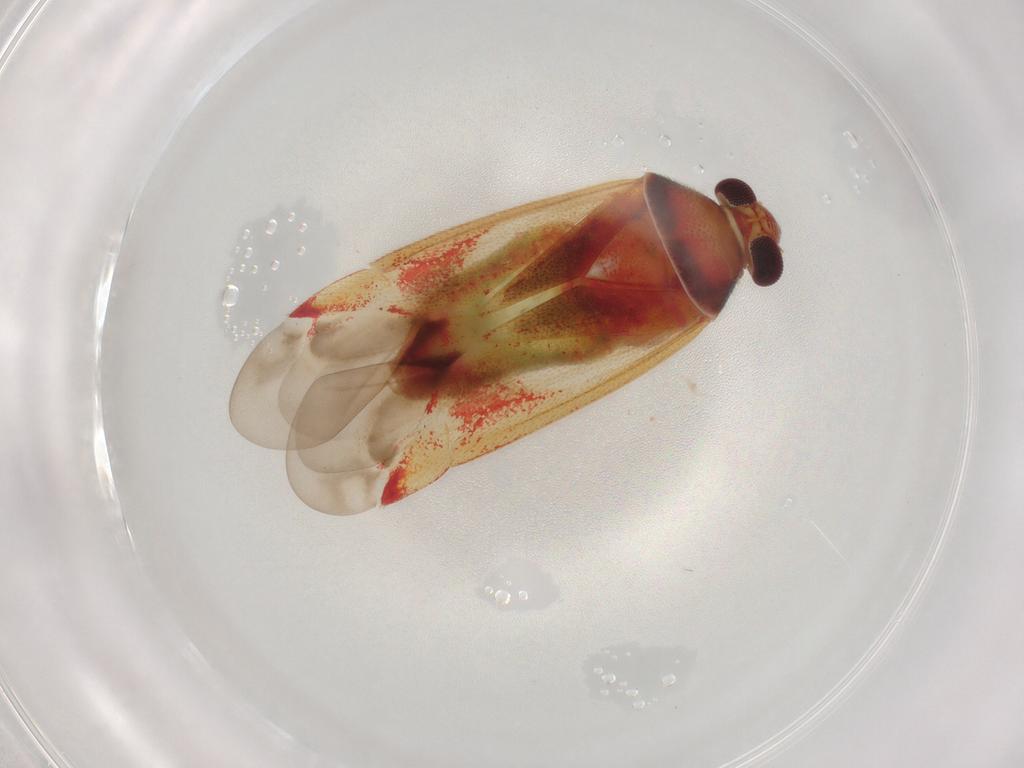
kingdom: Animalia
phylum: Arthropoda
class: Insecta
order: Hemiptera
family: Miridae
